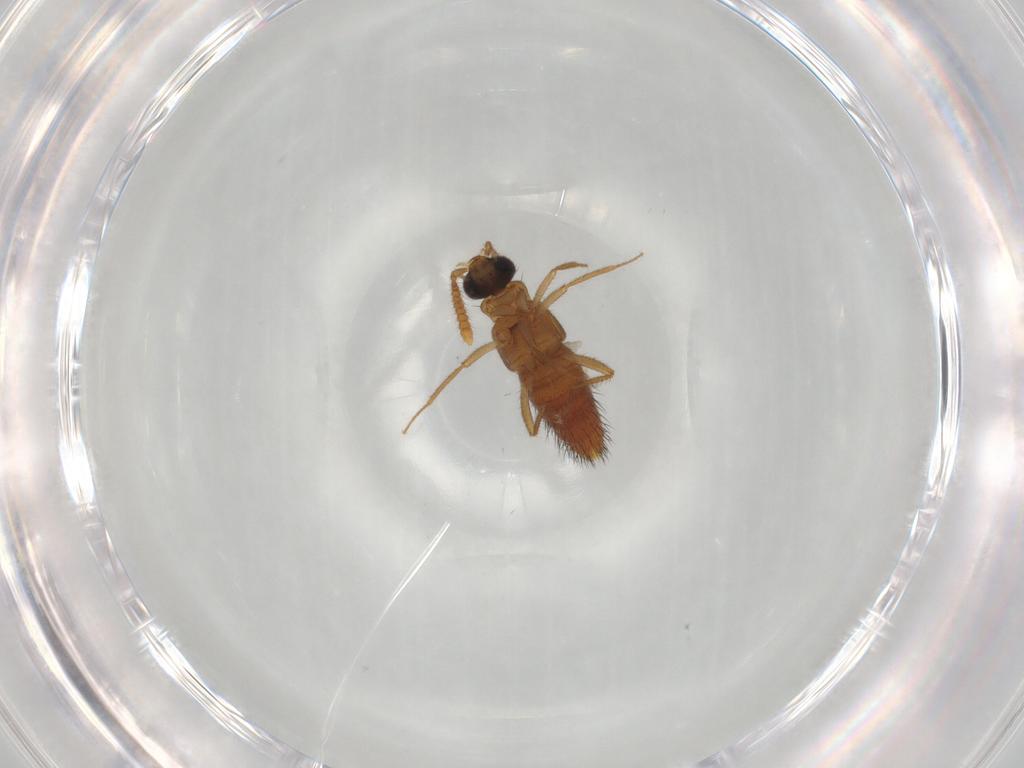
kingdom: Animalia
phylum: Arthropoda
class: Insecta
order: Coleoptera
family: Staphylinidae
